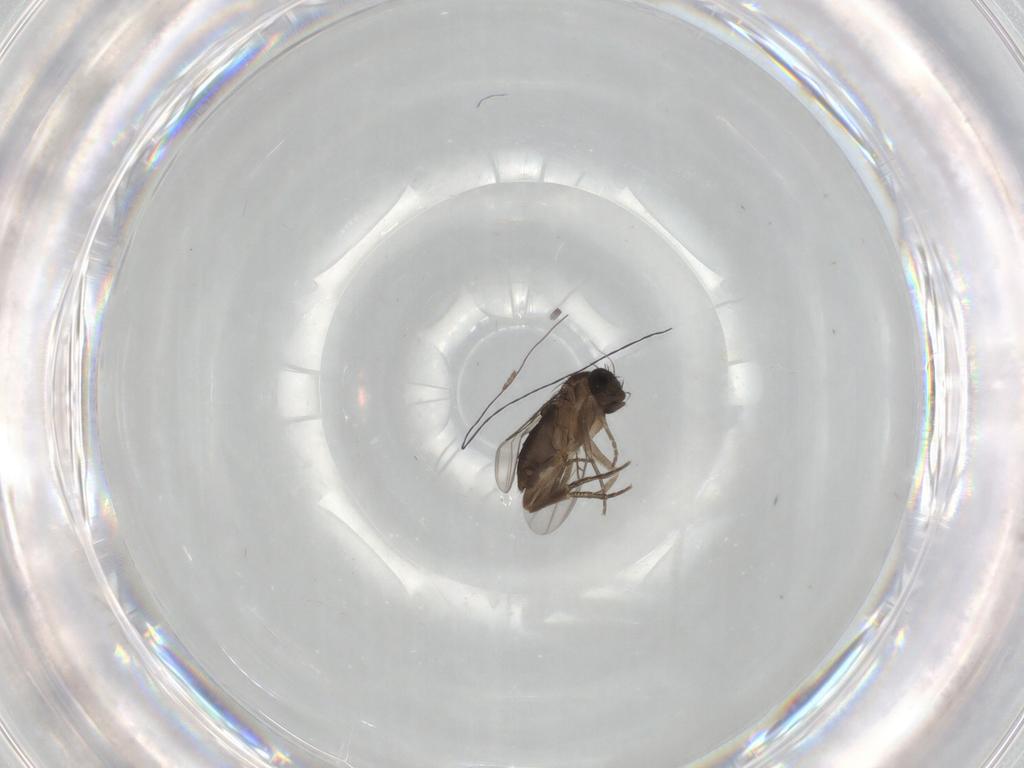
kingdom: Animalia
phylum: Arthropoda
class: Insecta
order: Diptera
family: Phoridae
